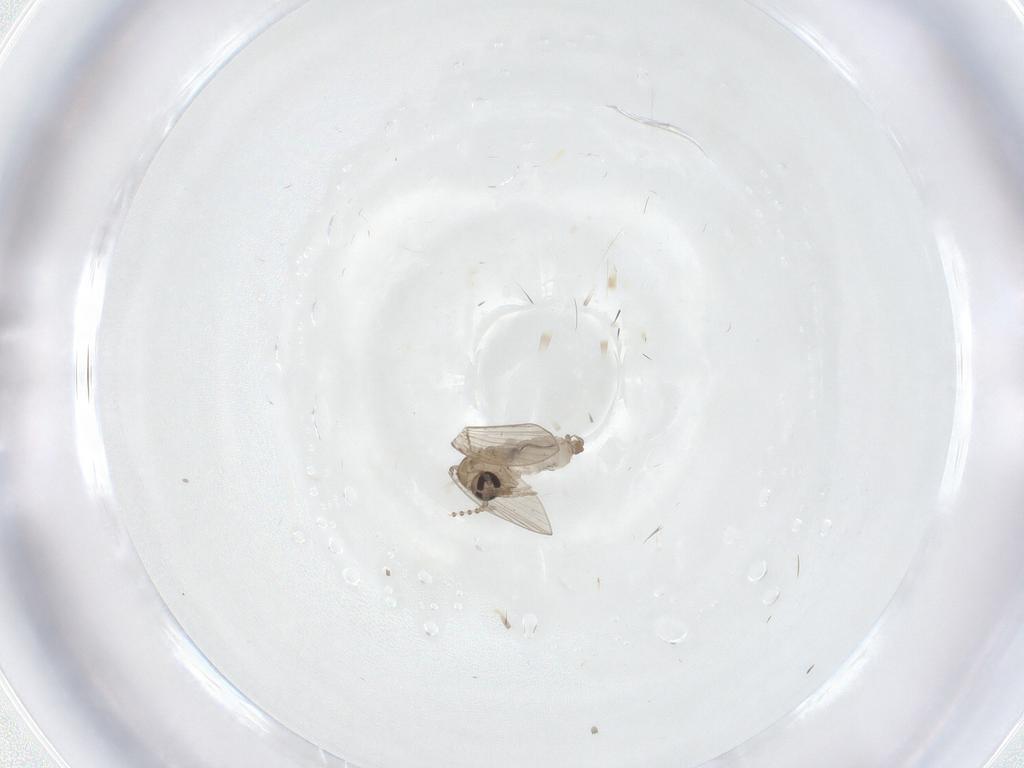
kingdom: Animalia
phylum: Arthropoda
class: Insecta
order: Diptera
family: Psychodidae
